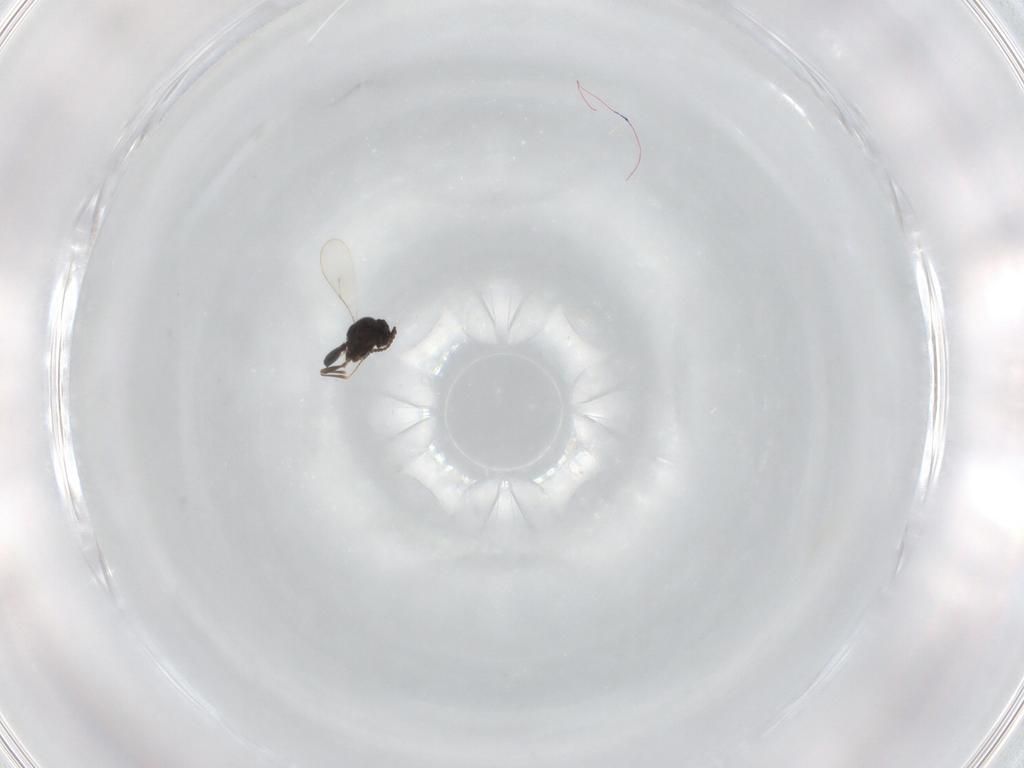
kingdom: Animalia
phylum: Arthropoda
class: Insecta
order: Hymenoptera
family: Scelionidae
